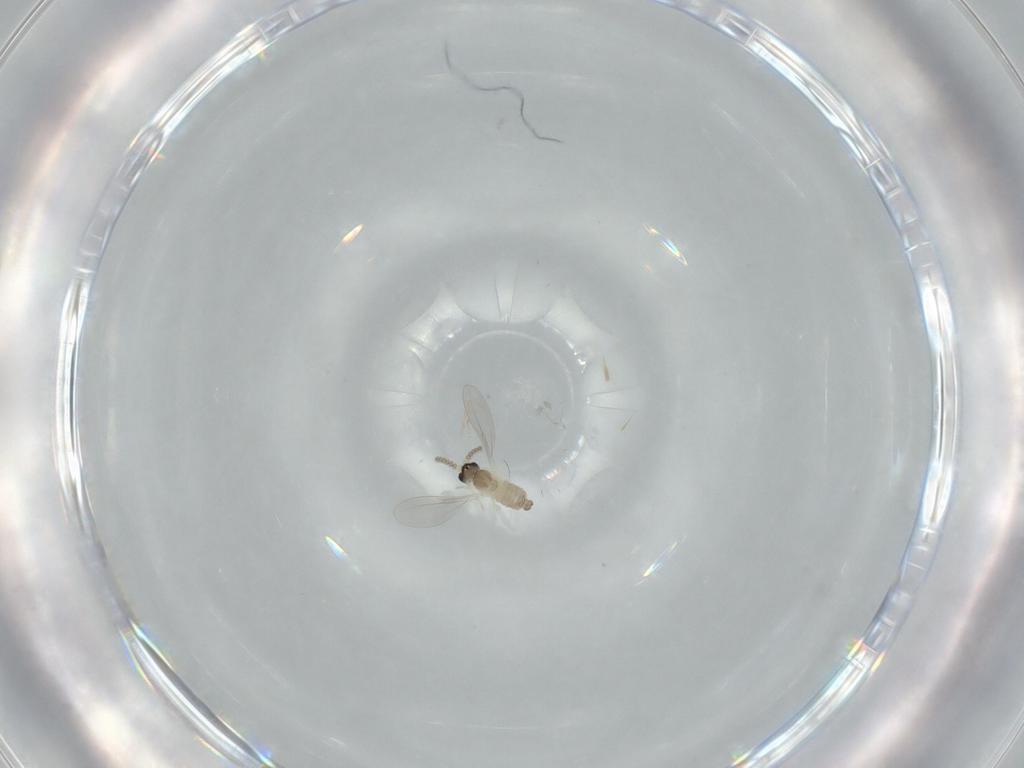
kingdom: Animalia
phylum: Arthropoda
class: Insecta
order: Diptera
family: Cecidomyiidae
